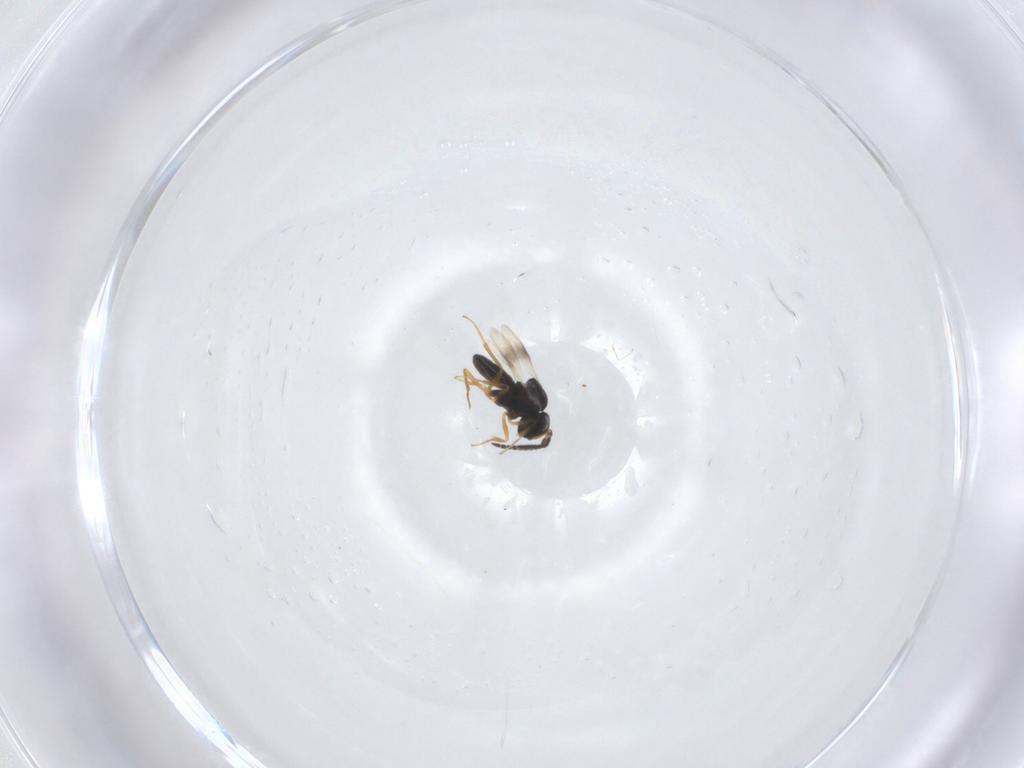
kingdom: Animalia
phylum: Arthropoda
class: Insecta
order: Hymenoptera
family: Scelionidae
